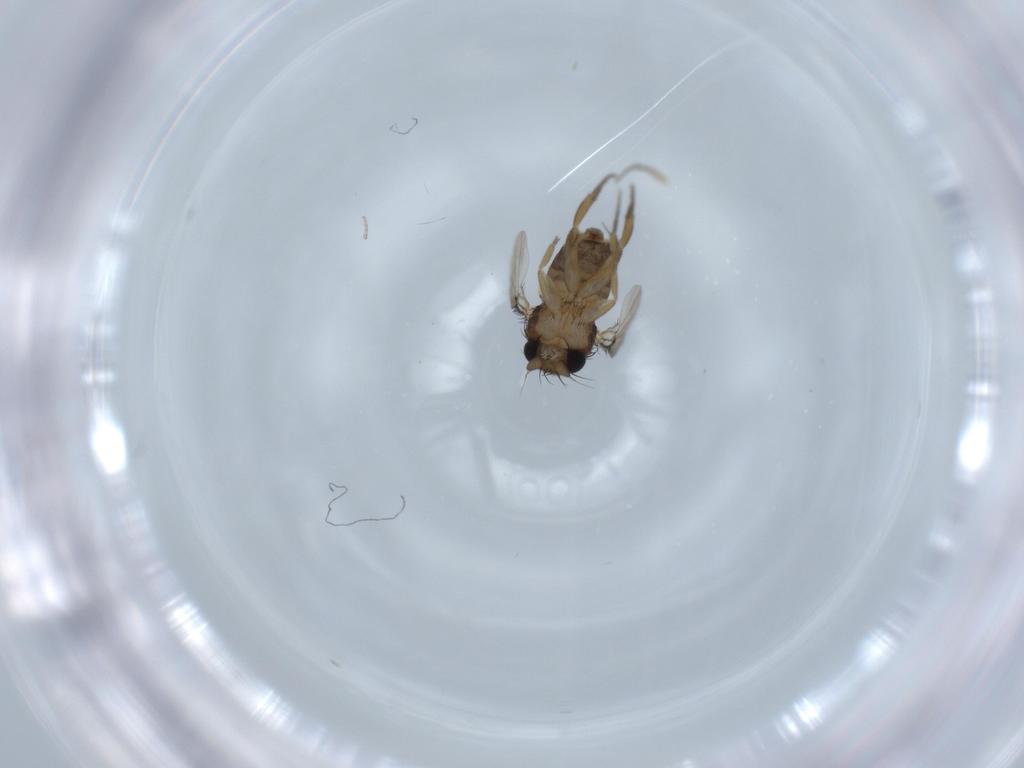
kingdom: Animalia
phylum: Arthropoda
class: Insecta
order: Diptera
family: Phoridae
